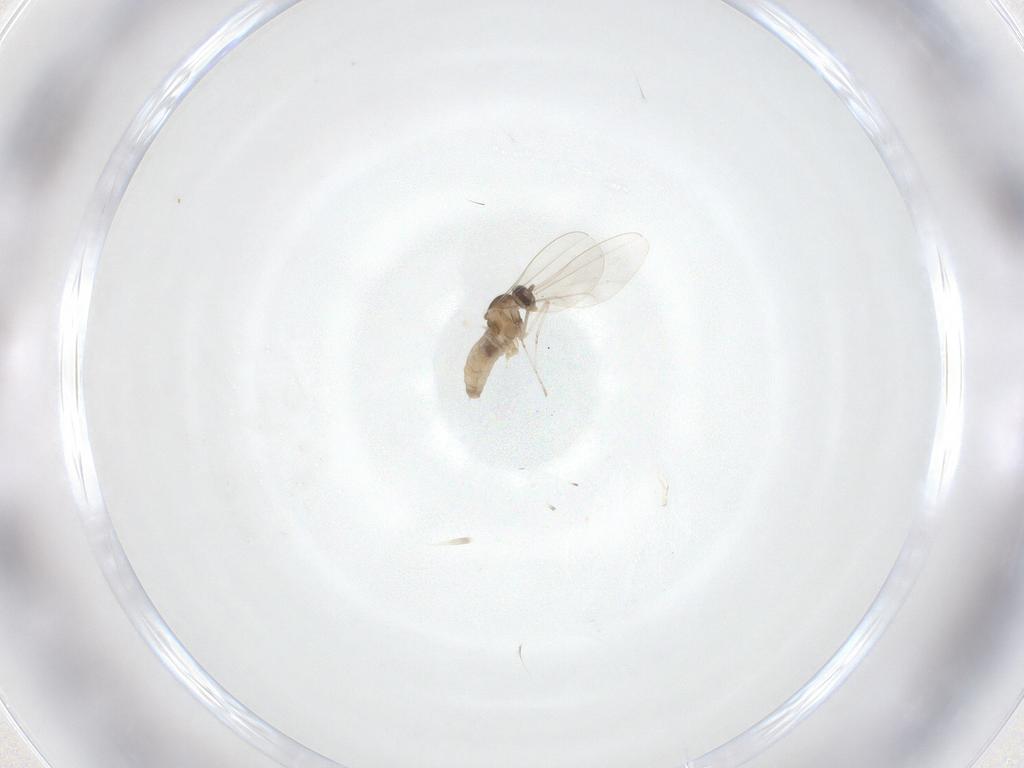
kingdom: Animalia
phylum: Arthropoda
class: Insecta
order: Diptera
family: Cecidomyiidae
